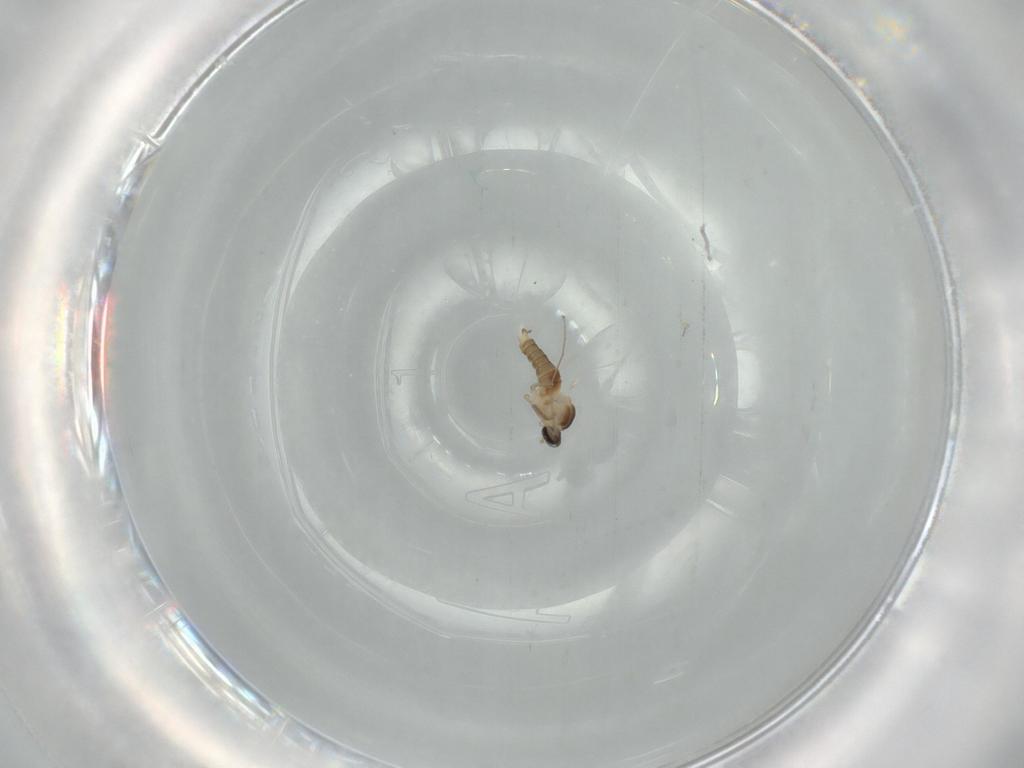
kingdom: Animalia
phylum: Arthropoda
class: Insecta
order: Diptera
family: Cecidomyiidae
